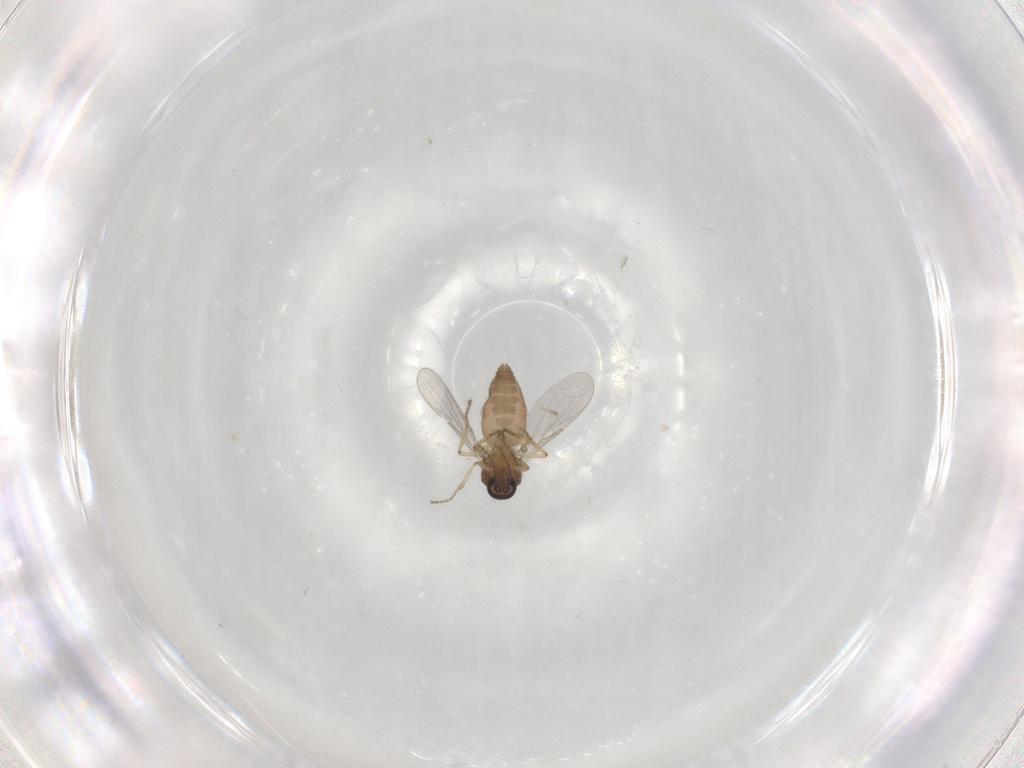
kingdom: Animalia
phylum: Arthropoda
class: Insecta
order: Diptera
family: Ceratopogonidae
